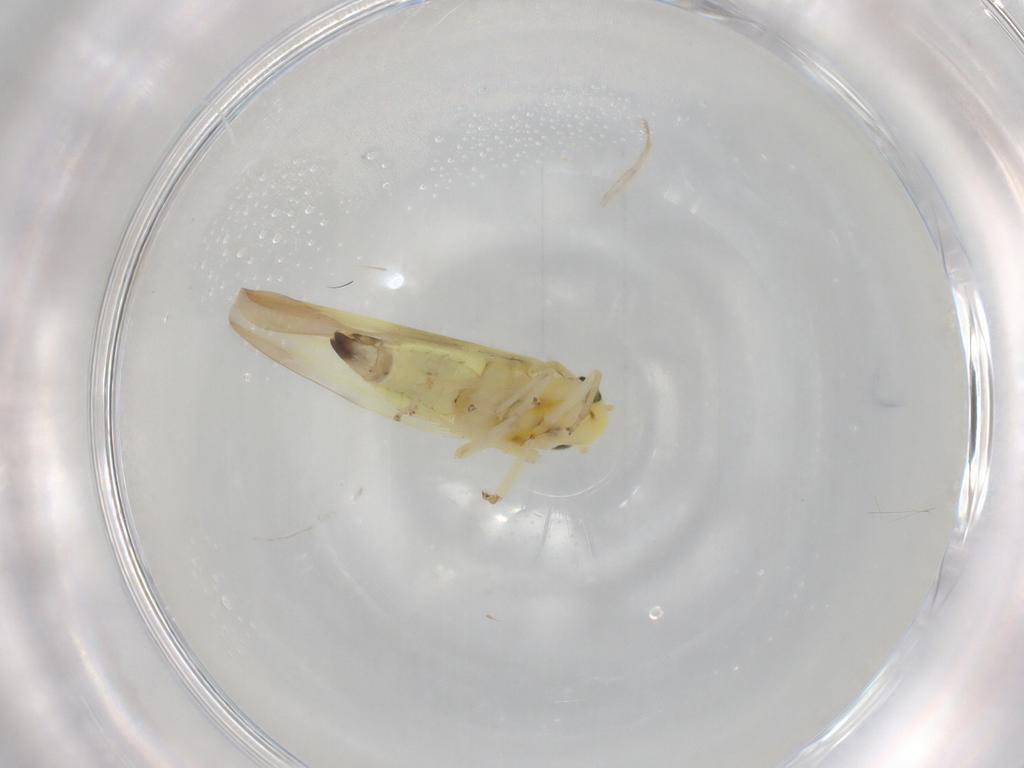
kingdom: Animalia
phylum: Arthropoda
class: Insecta
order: Hemiptera
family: Cicadellidae
